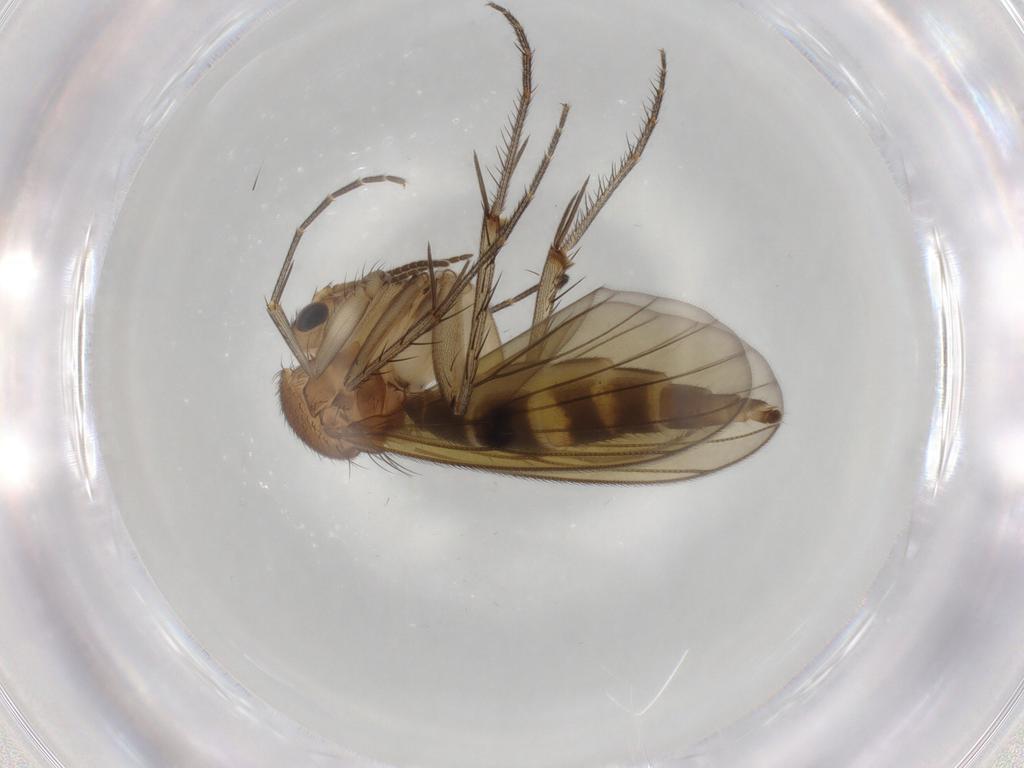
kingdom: Animalia
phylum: Arthropoda
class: Insecta
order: Diptera
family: Mycetophilidae
